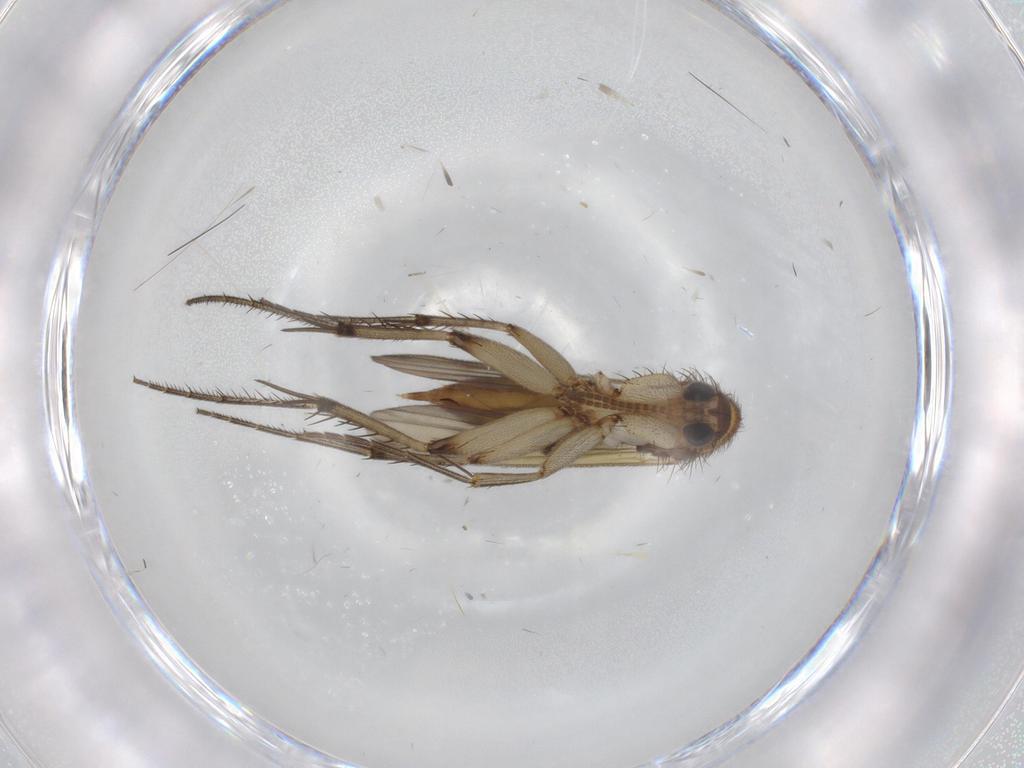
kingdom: Animalia
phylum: Arthropoda
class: Insecta
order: Diptera
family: Mycetophilidae
